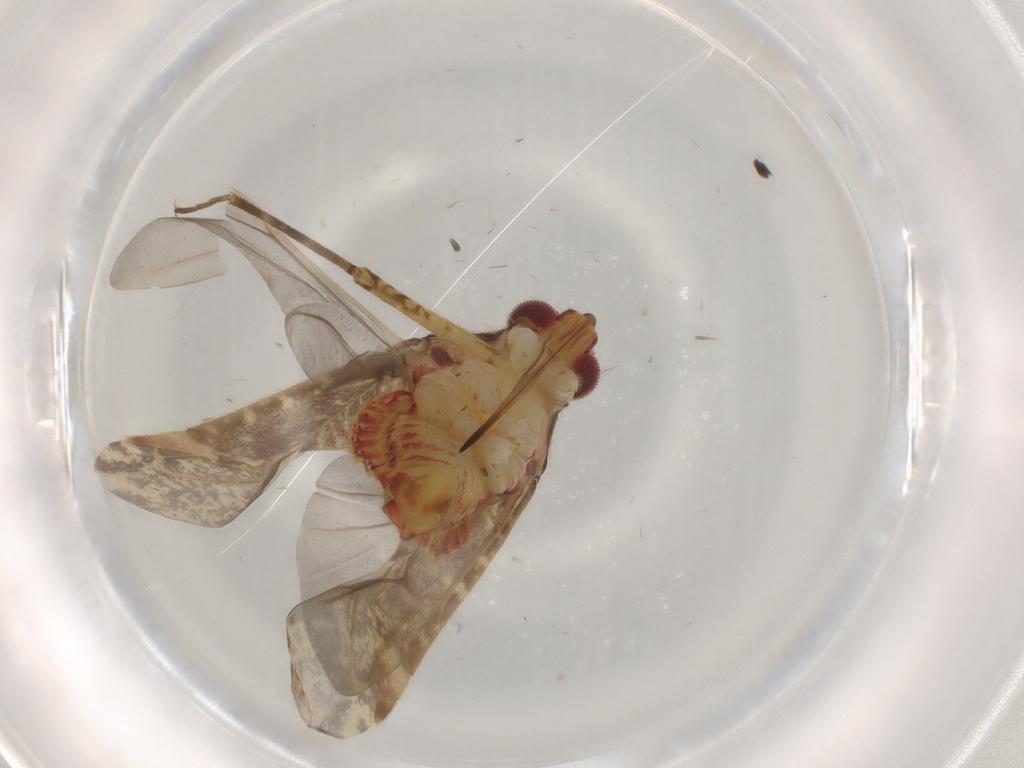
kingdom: Animalia
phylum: Arthropoda
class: Insecta
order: Hemiptera
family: Miridae
